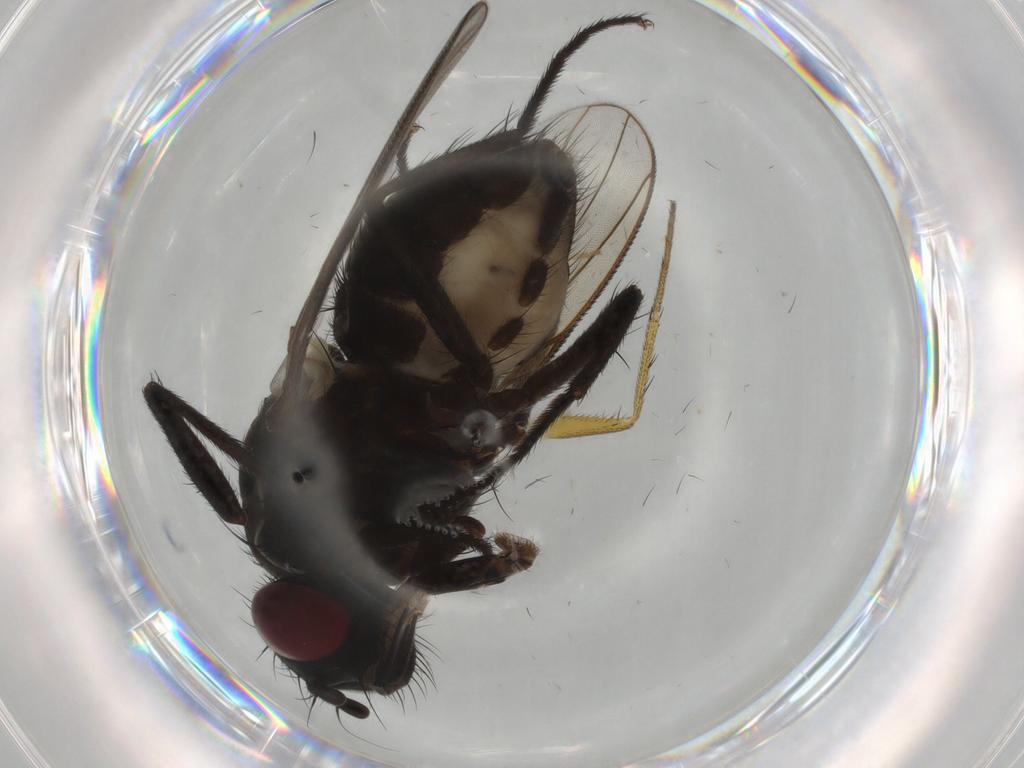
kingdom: Animalia
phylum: Arthropoda
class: Insecta
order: Diptera
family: Muscidae
